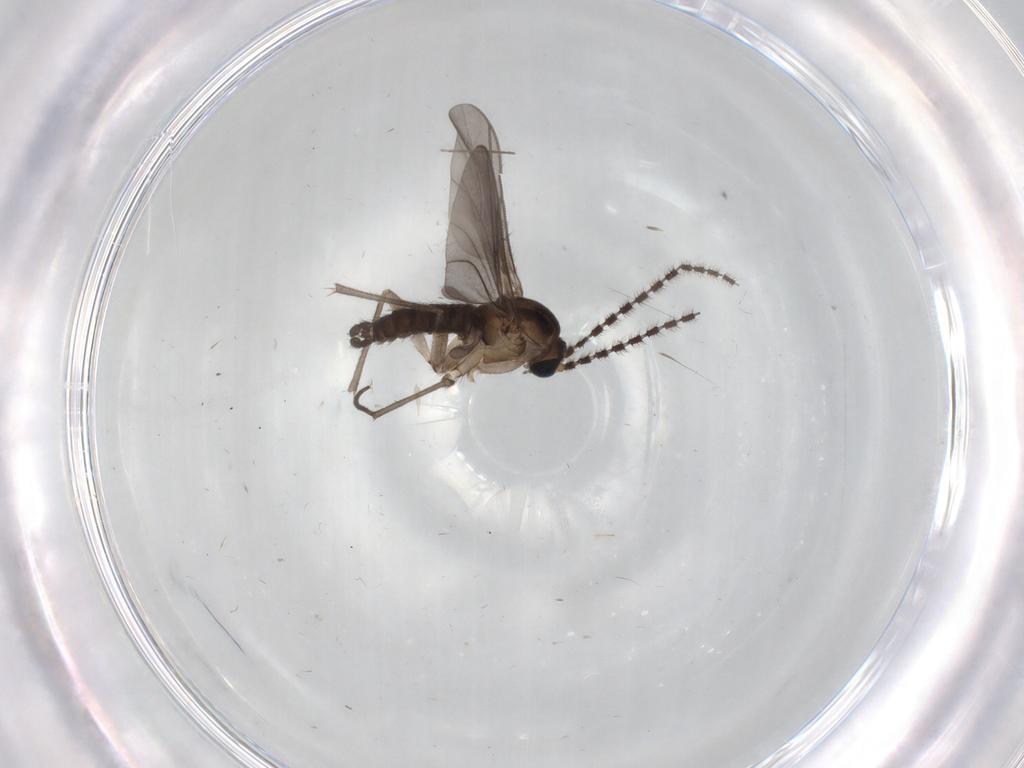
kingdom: Animalia
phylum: Arthropoda
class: Insecta
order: Diptera
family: Sciaridae
